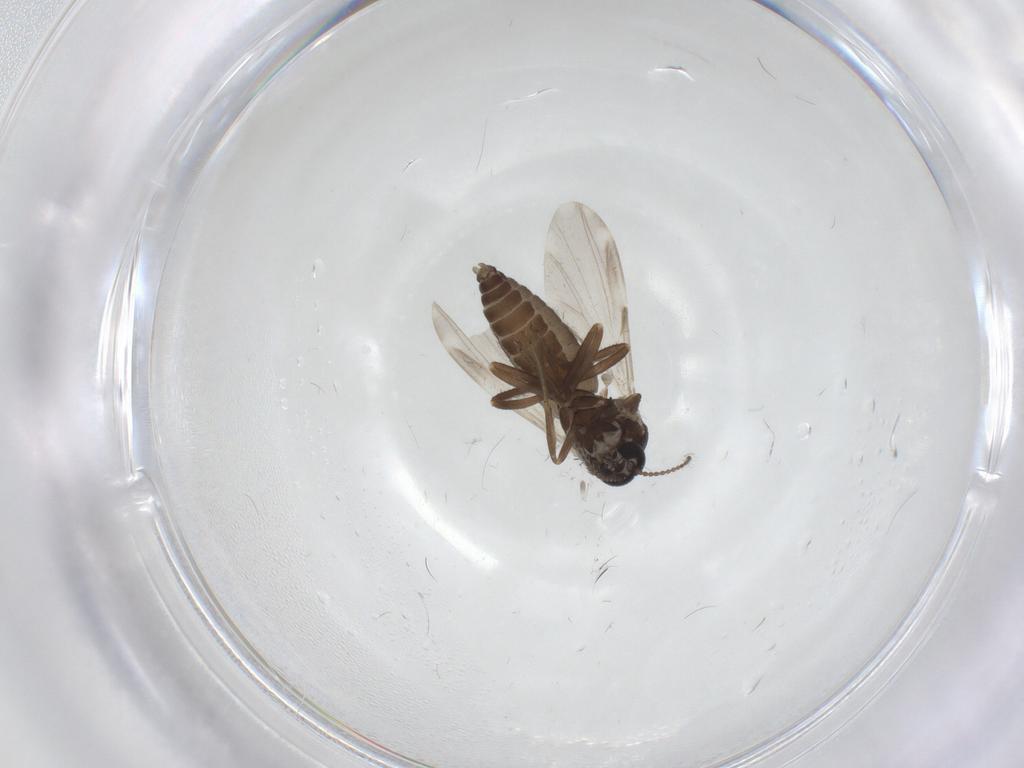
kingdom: Animalia
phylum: Arthropoda
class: Insecta
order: Diptera
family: Ceratopogonidae
